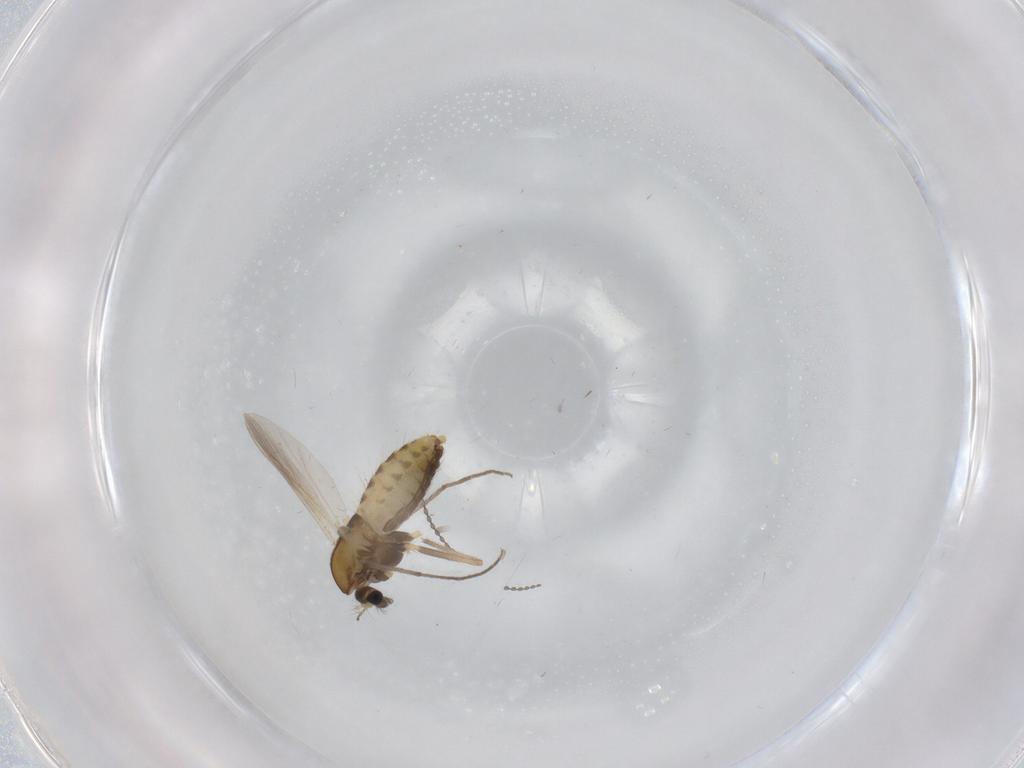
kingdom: Animalia
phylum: Arthropoda
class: Insecta
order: Diptera
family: Chironomidae
